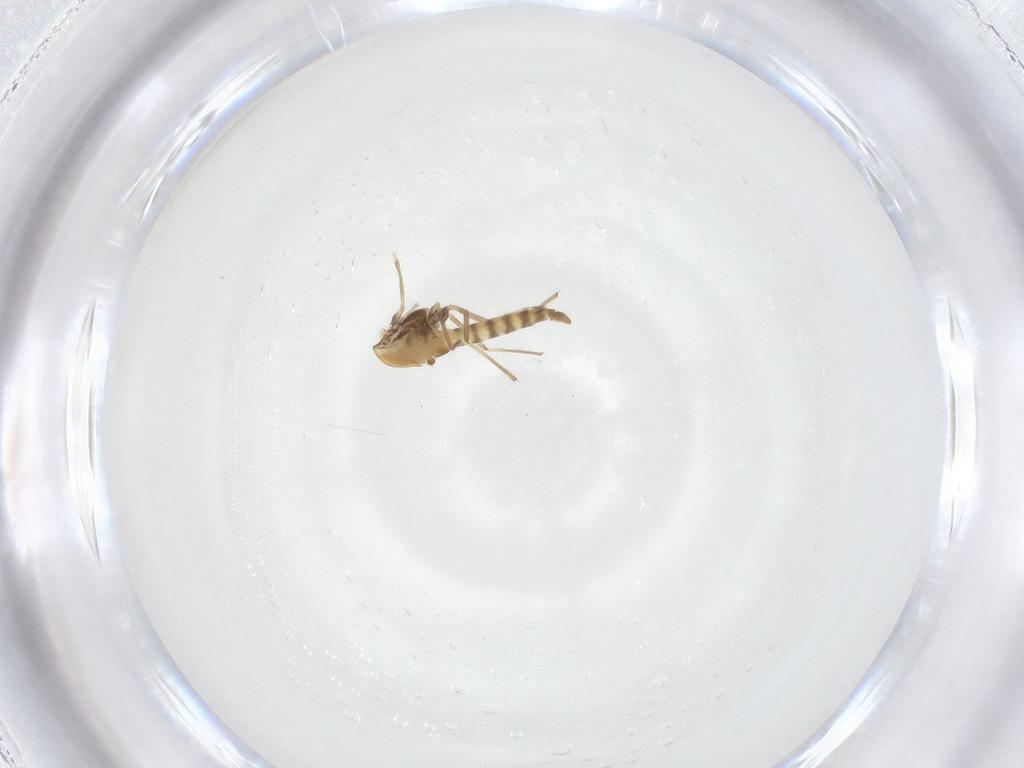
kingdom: Animalia
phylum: Arthropoda
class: Insecta
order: Diptera
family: Chironomidae
